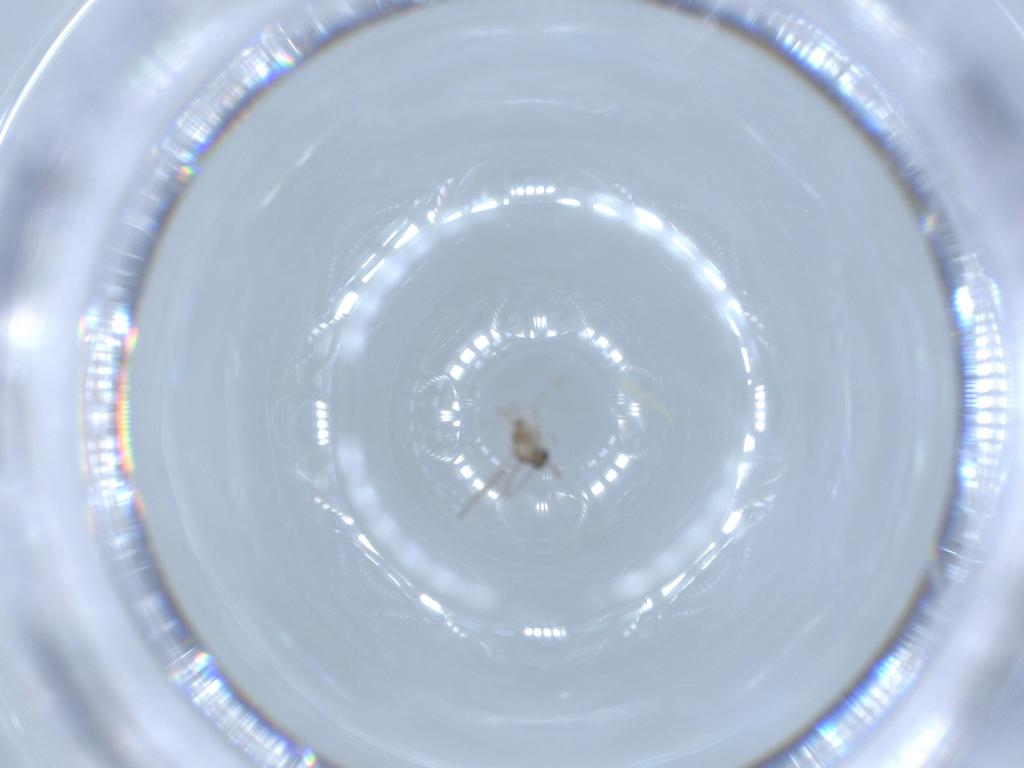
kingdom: Animalia
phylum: Arthropoda
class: Insecta
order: Diptera
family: Cecidomyiidae
